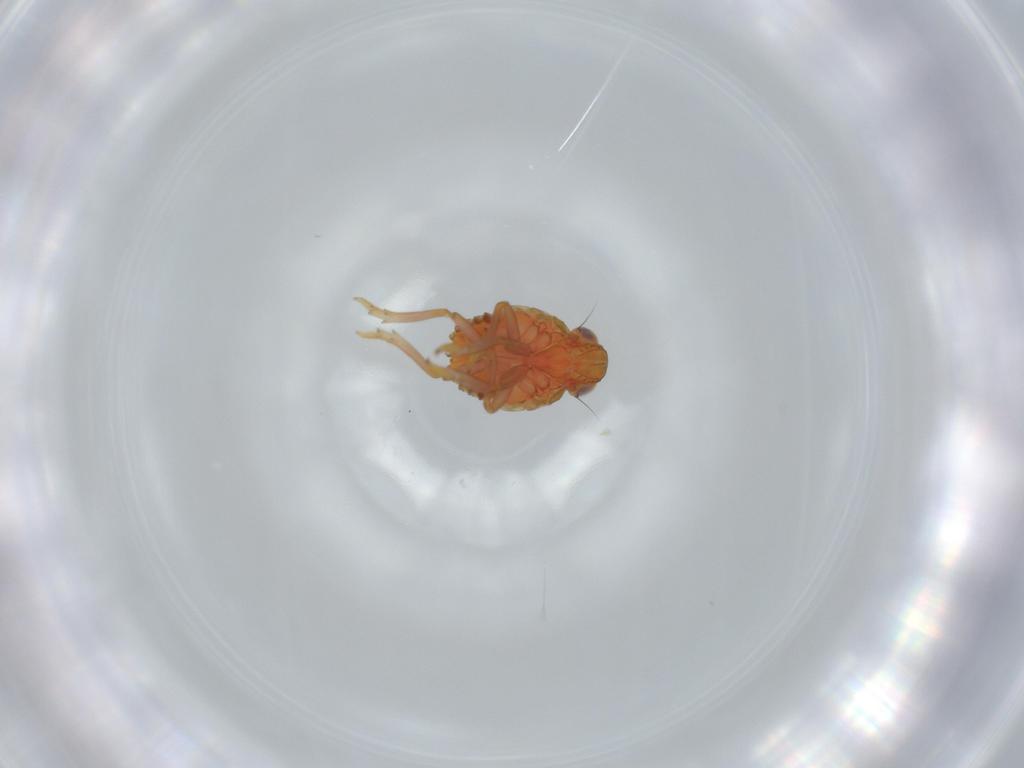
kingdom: Animalia
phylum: Arthropoda
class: Insecta
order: Hemiptera
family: Issidae
